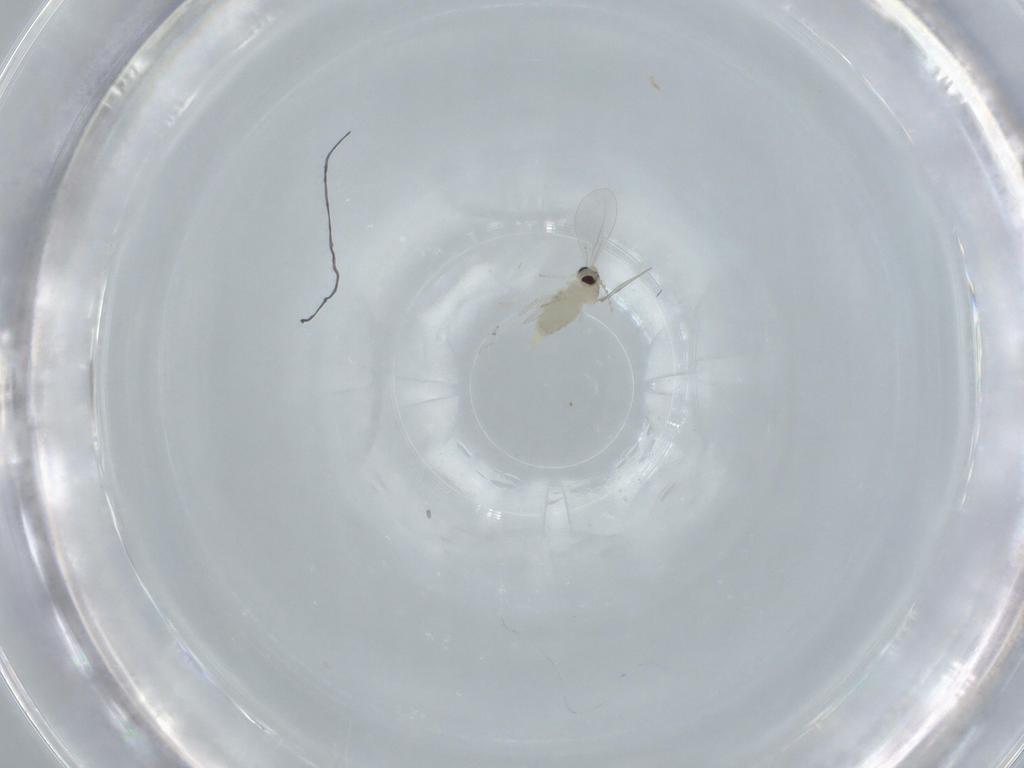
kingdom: Animalia
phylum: Arthropoda
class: Insecta
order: Diptera
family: Cecidomyiidae
